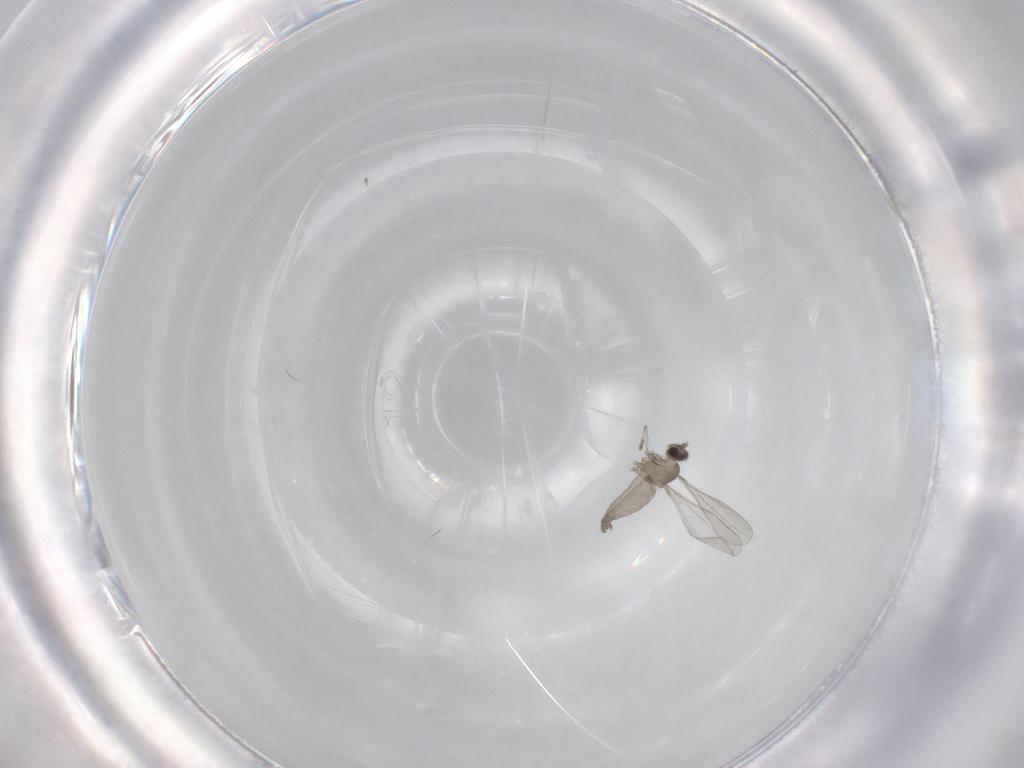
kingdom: Animalia
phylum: Arthropoda
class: Insecta
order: Diptera
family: Cecidomyiidae
